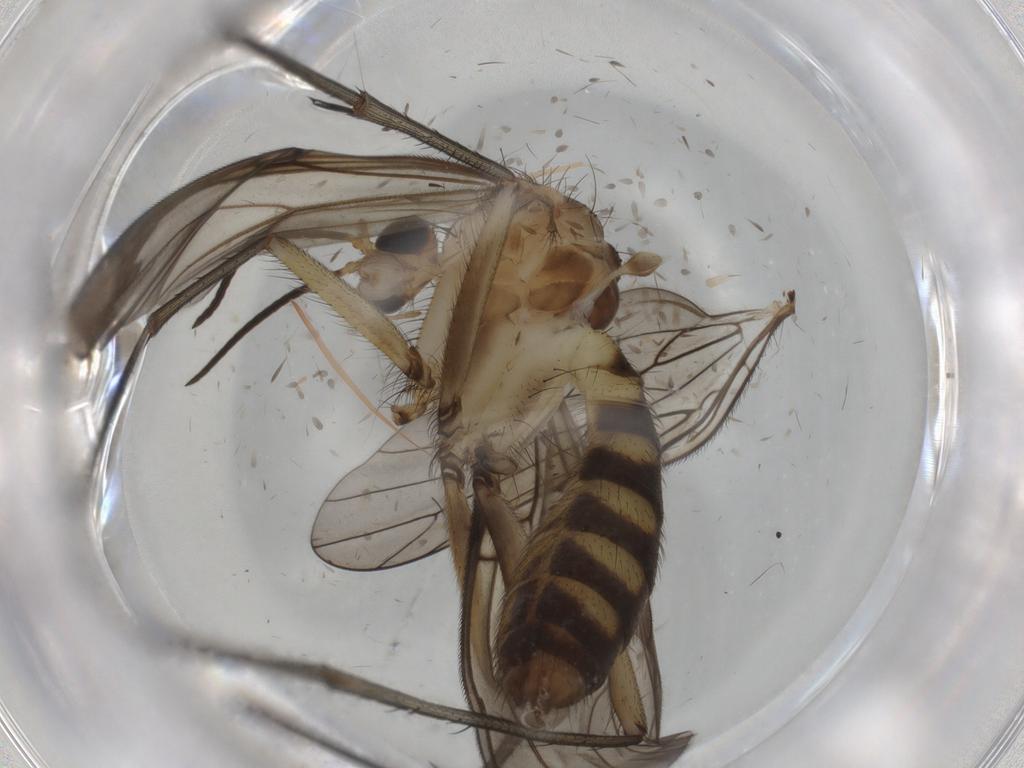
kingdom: Animalia
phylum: Arthropoda
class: Insecta
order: Diptera
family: Mycetophilidae
